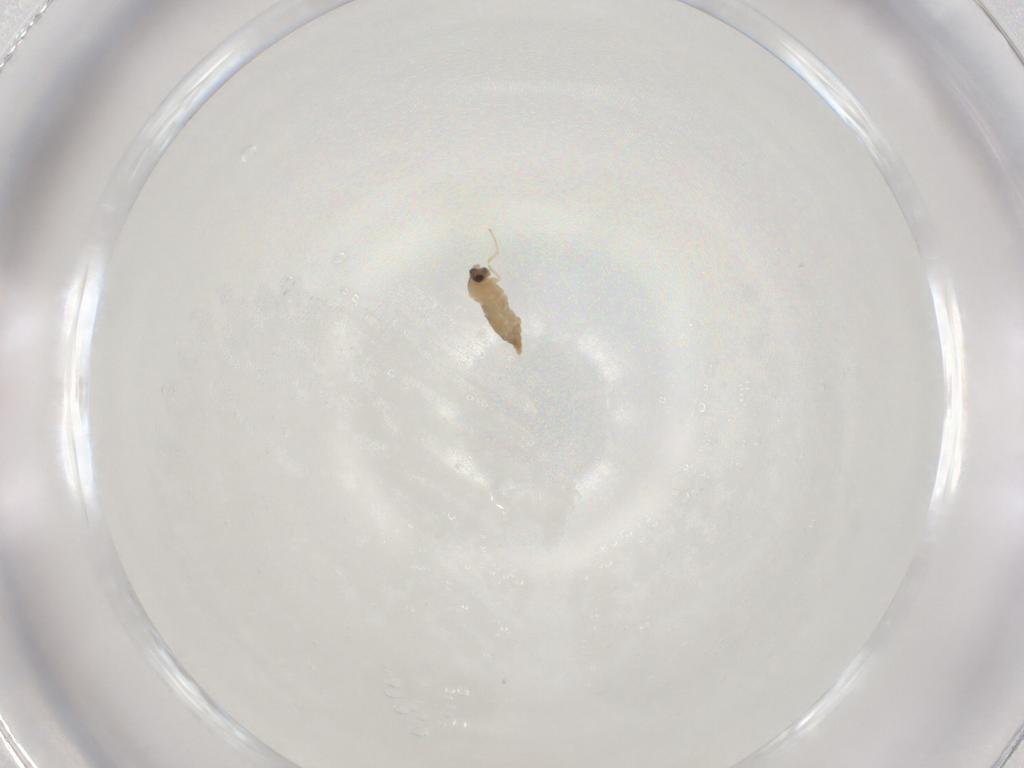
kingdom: Animalia
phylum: Arthropoda
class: Insecta
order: Diptera
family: Cecidomyiidae
